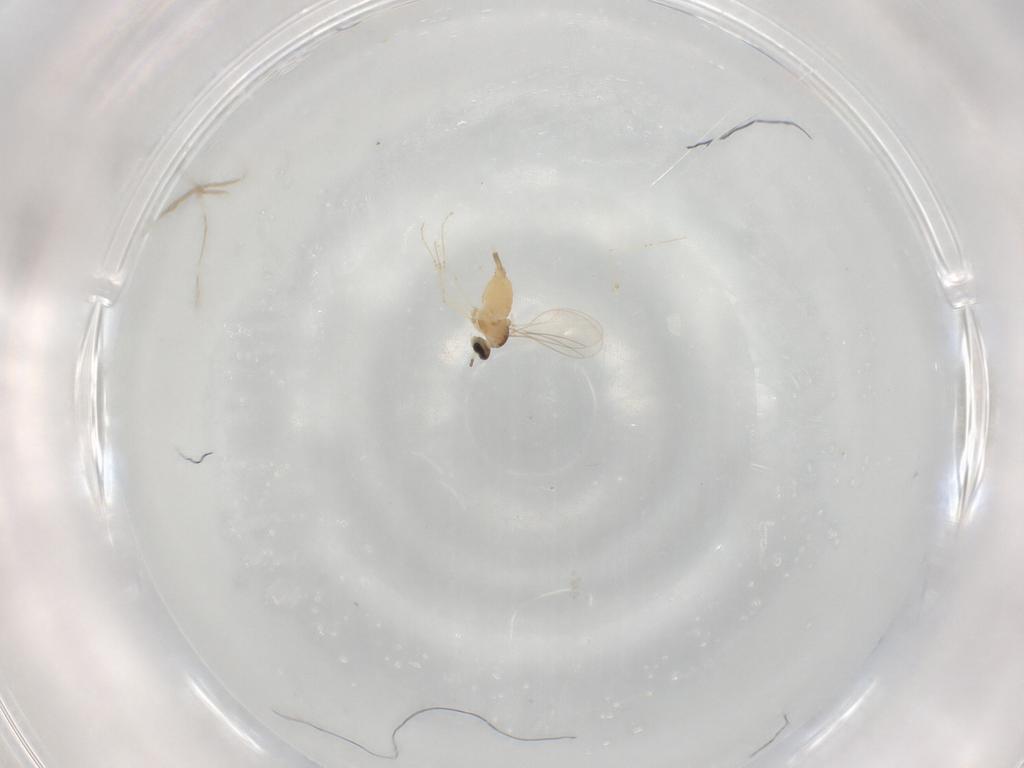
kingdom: Animalia
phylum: Arthropoda
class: Insecta
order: Diptera
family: Cecidomyiidae
